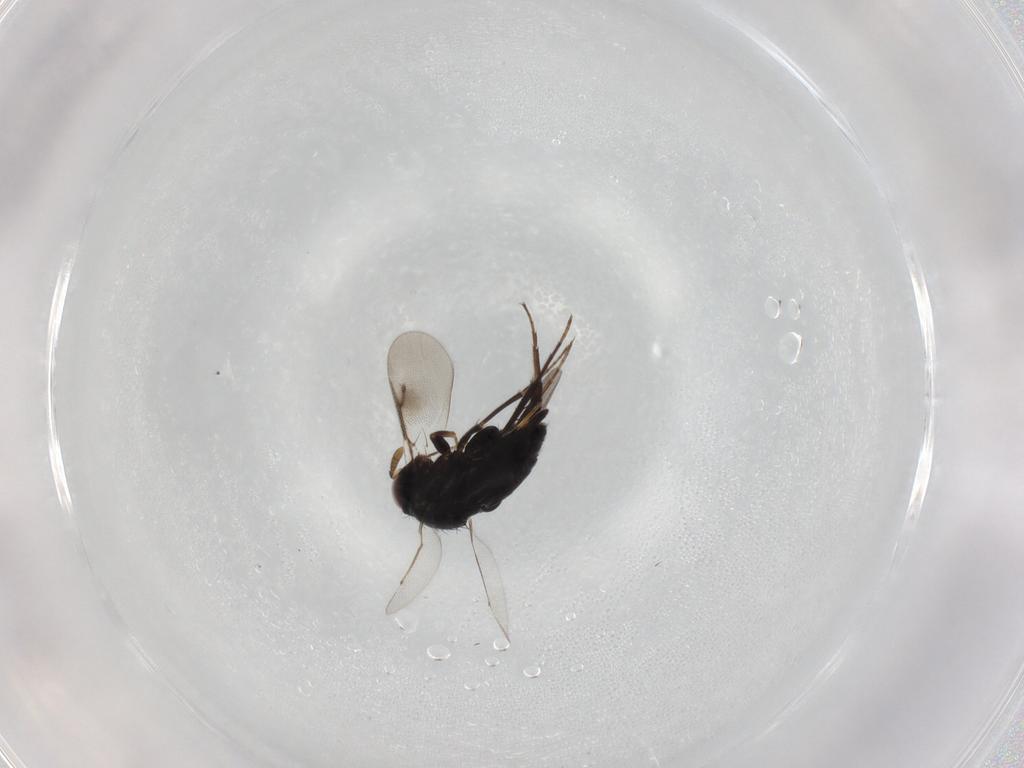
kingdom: Animalia
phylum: Arthropoda
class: Insecta
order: Hymenoptera
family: Pirenidae
